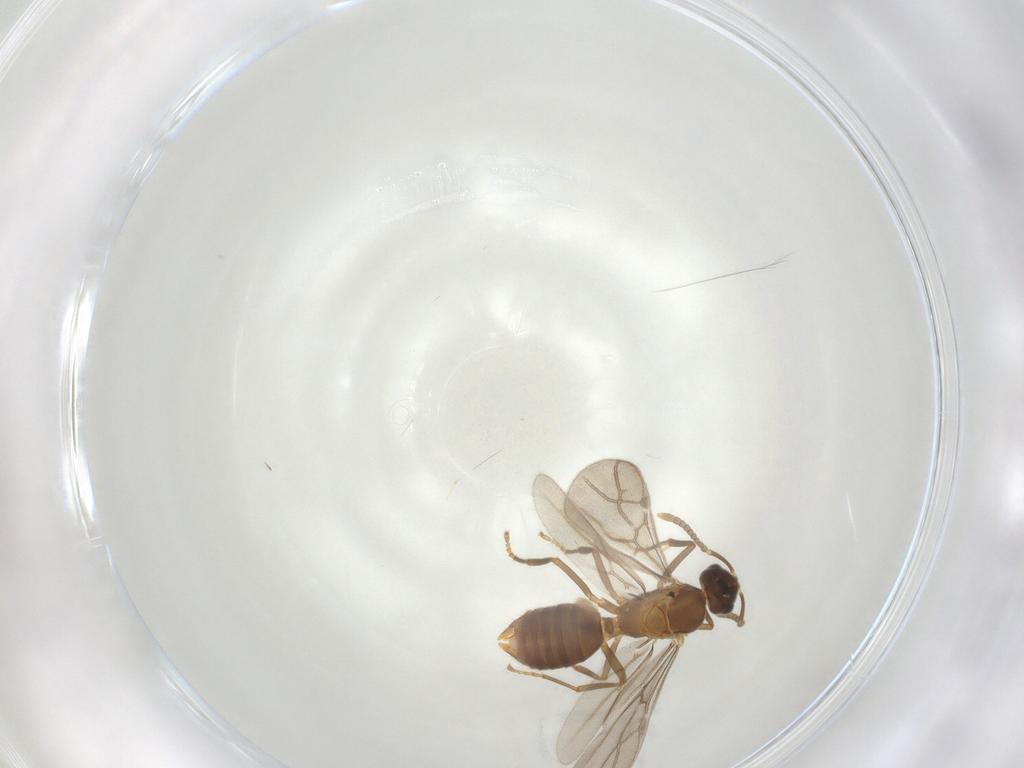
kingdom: Animalia
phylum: Arthropoda
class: Insecta
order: Hymenoptera
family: Formicidae
